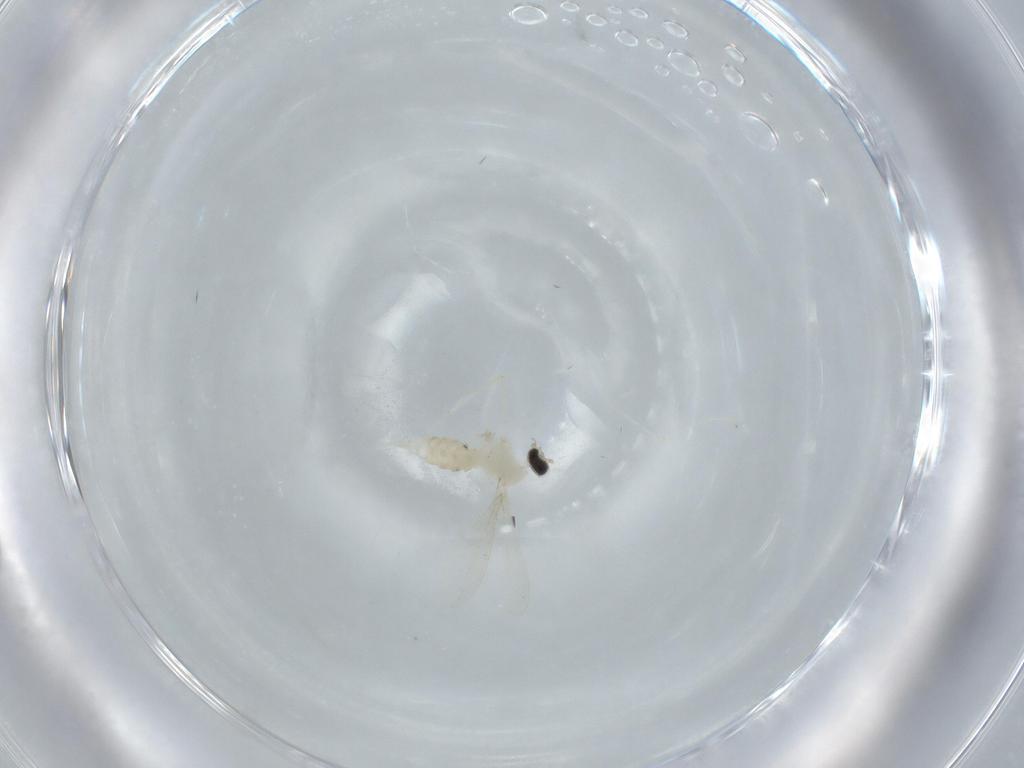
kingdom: Animalia
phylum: Arthropoda
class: Insecta
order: Diptera
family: Cecidomyiidae
